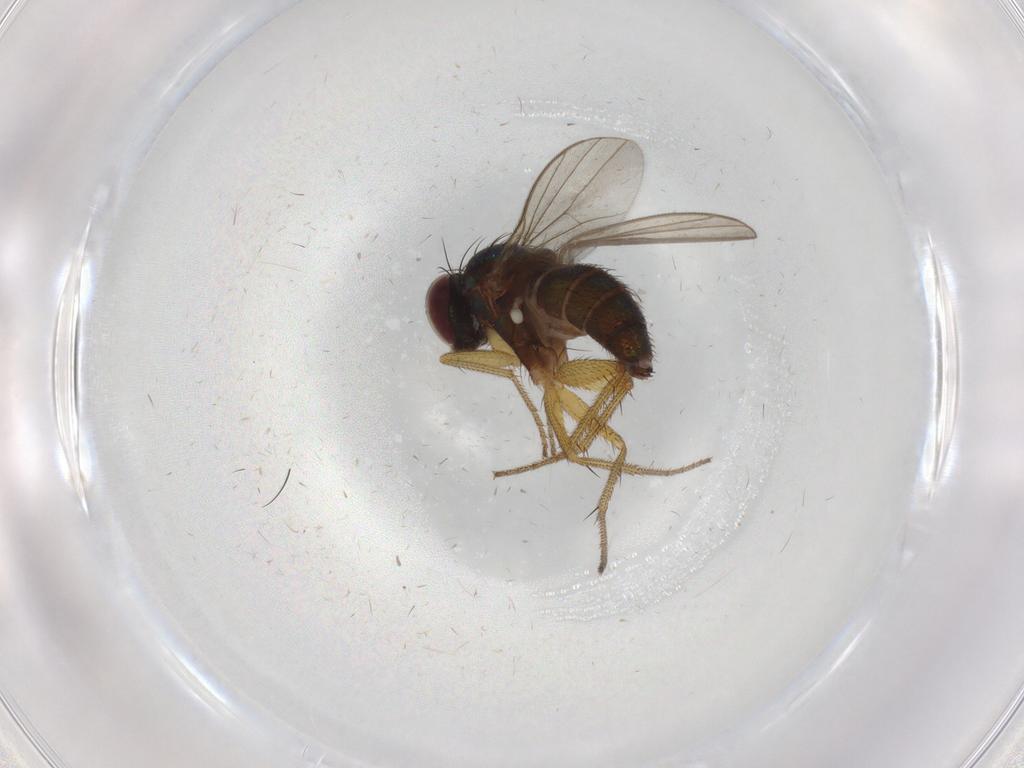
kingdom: Animalia
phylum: Arthropoda
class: Insecta
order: Diptera
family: Dolichopodidae
